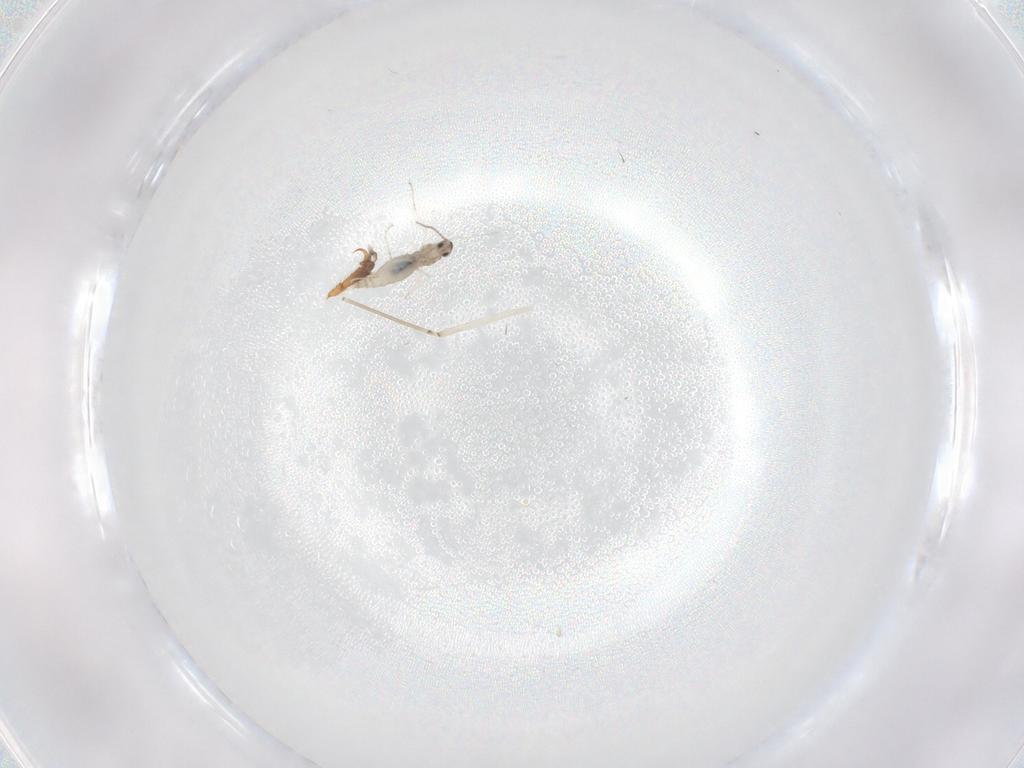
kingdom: Animalia
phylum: Arthropoda
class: Insecta
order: Diptera
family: Cecidomyiidae
